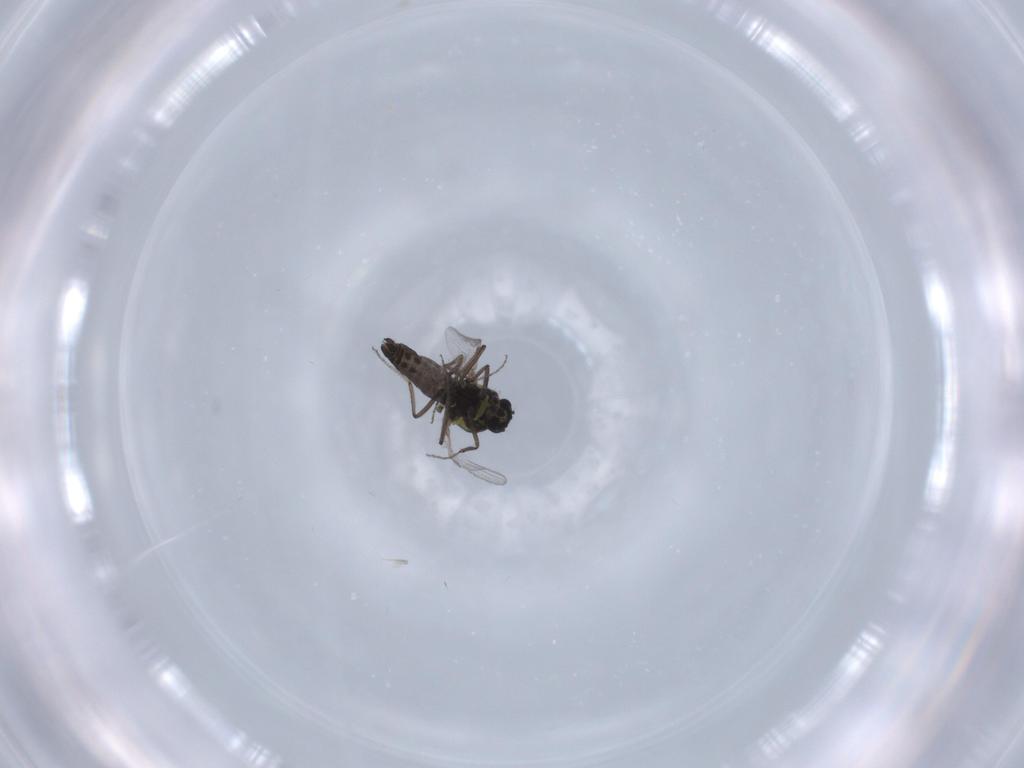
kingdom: Animalia
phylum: Arthropoda
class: Insecta
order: Diptera
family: Ceratopogonidae
